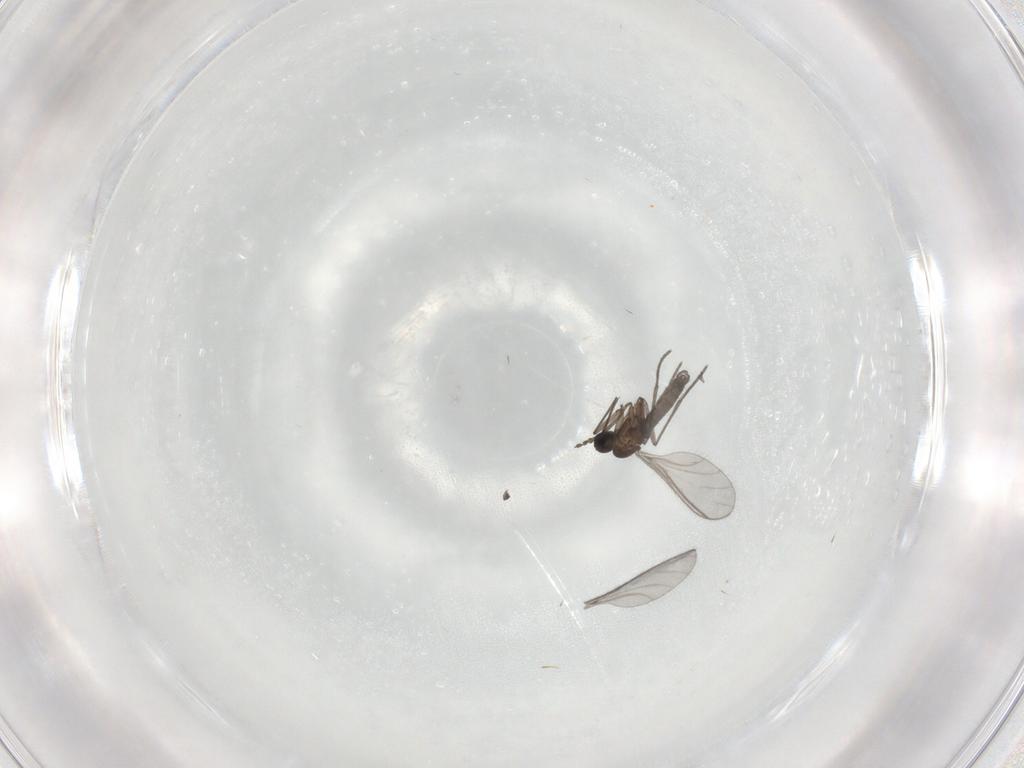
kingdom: Animalia
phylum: Arthropoda
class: Insecta
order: Diptera
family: Sciaridae
